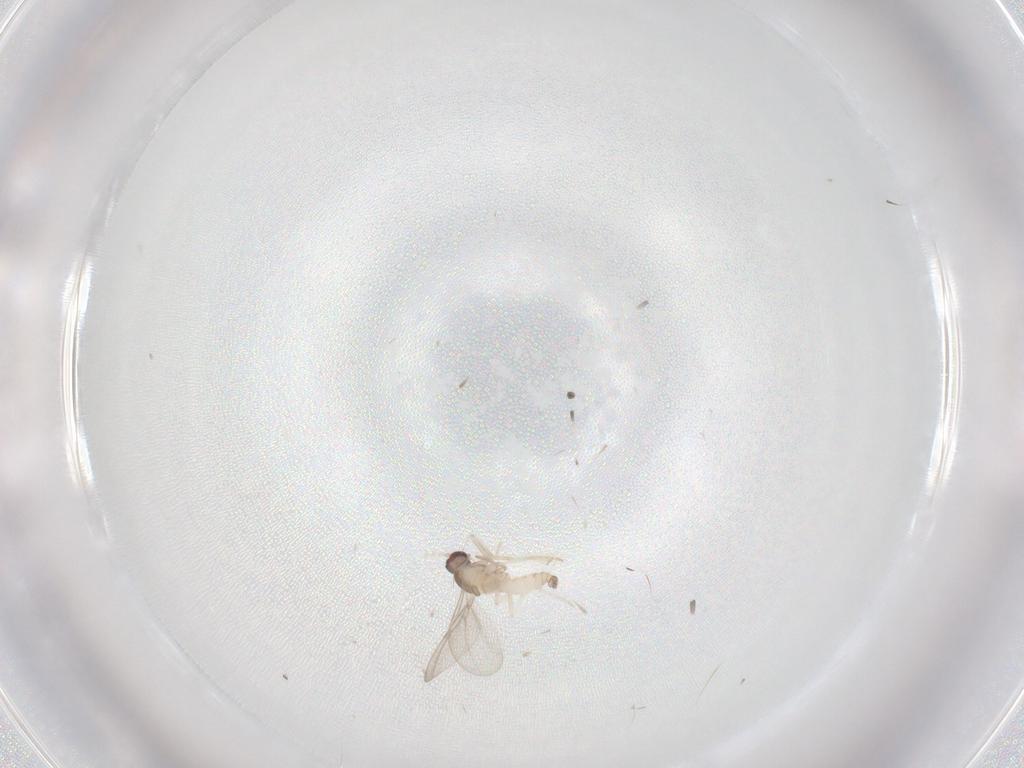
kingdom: Animalia
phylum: Arthropoda
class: Insecta
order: Diptera
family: Cecidomyiidae
